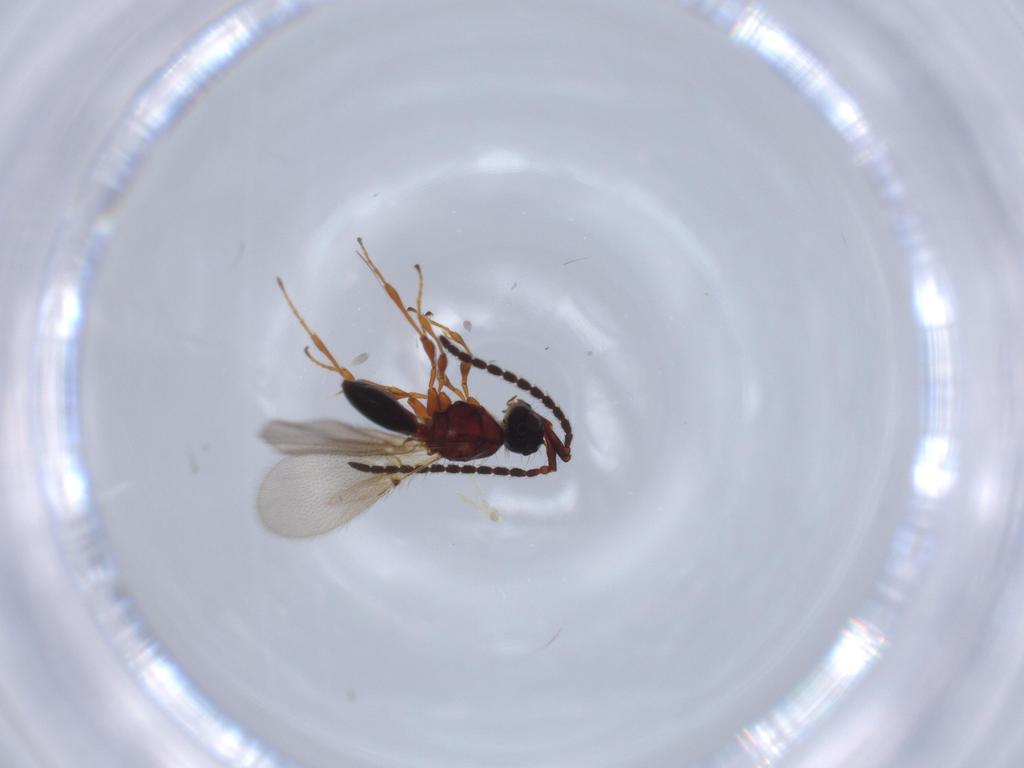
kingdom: Animalia
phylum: Arthropoda
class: Insecta
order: Hymenoptera
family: Diapriidae
